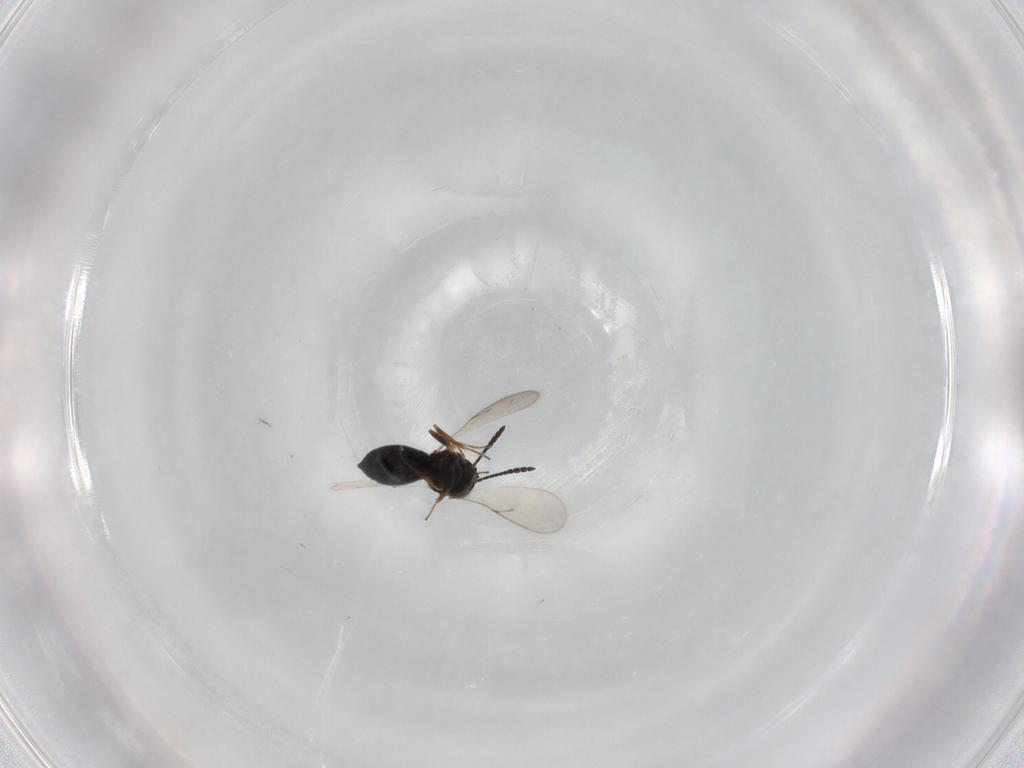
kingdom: Animalia
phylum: Arthropoda
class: Insecta
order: Hymenoptera
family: Scelionidae
